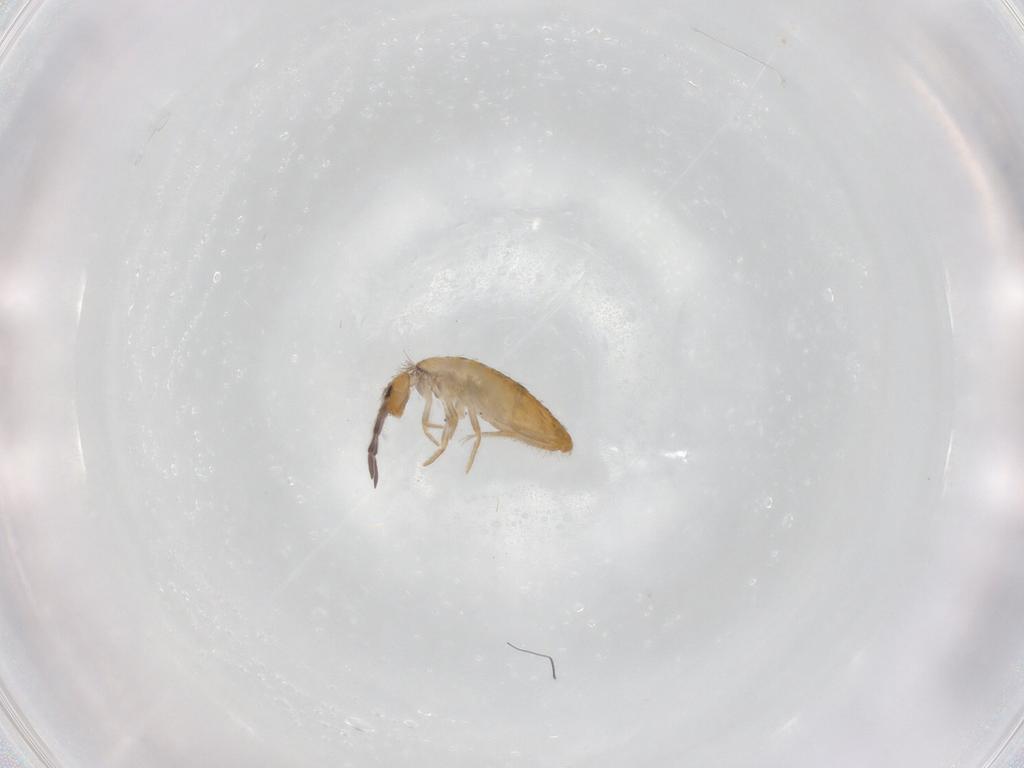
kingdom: Animalia
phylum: Arthropoda
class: Collembola
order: Entomobryomorpha
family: Entomobryidae
